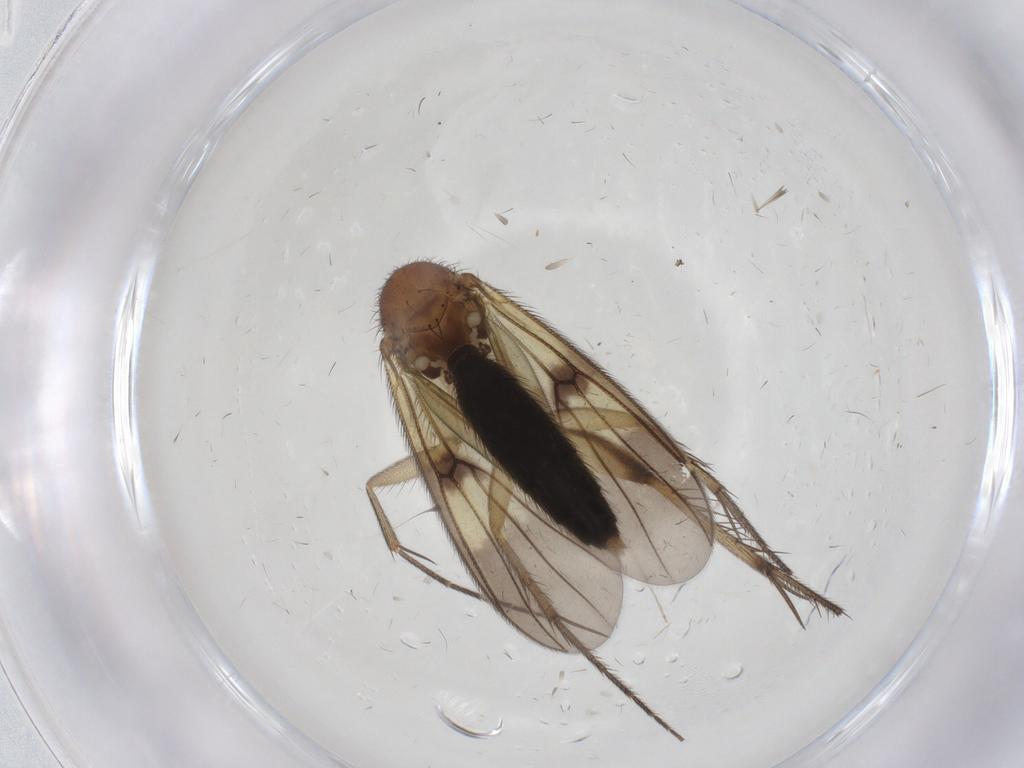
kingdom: Animalia
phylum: Arthropoda
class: Insecta
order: Diptera
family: Mycetophilidae
